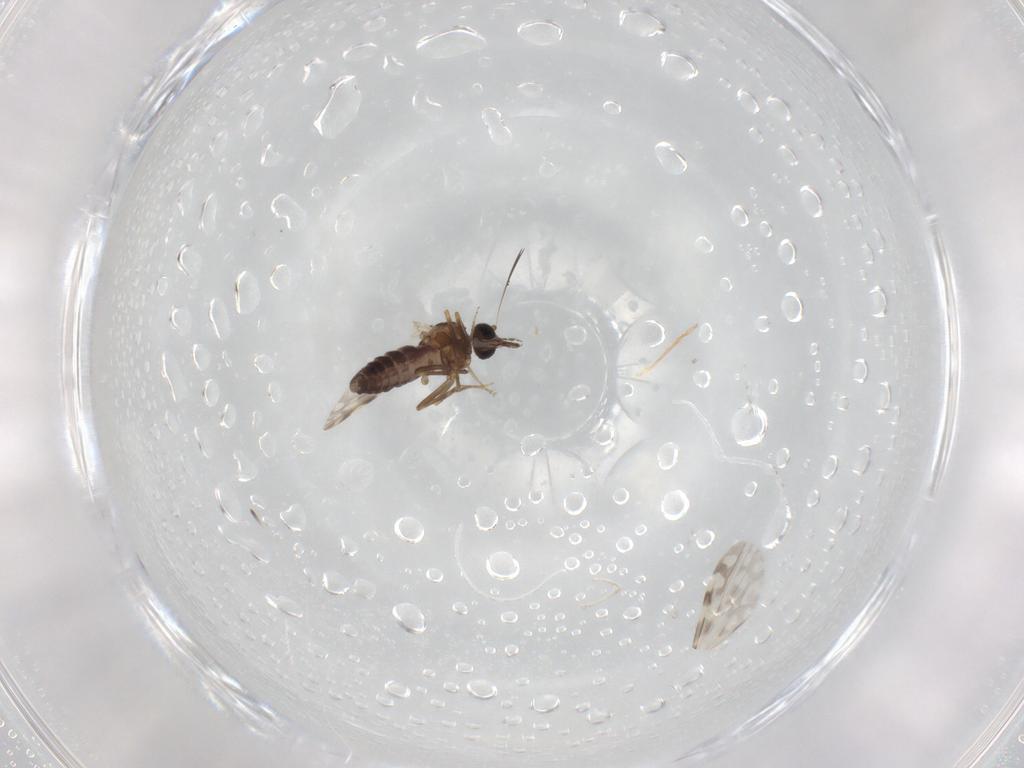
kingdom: Animalia
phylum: Arthropoda
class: Insecta
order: Diptera
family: Ceratopogonidae
